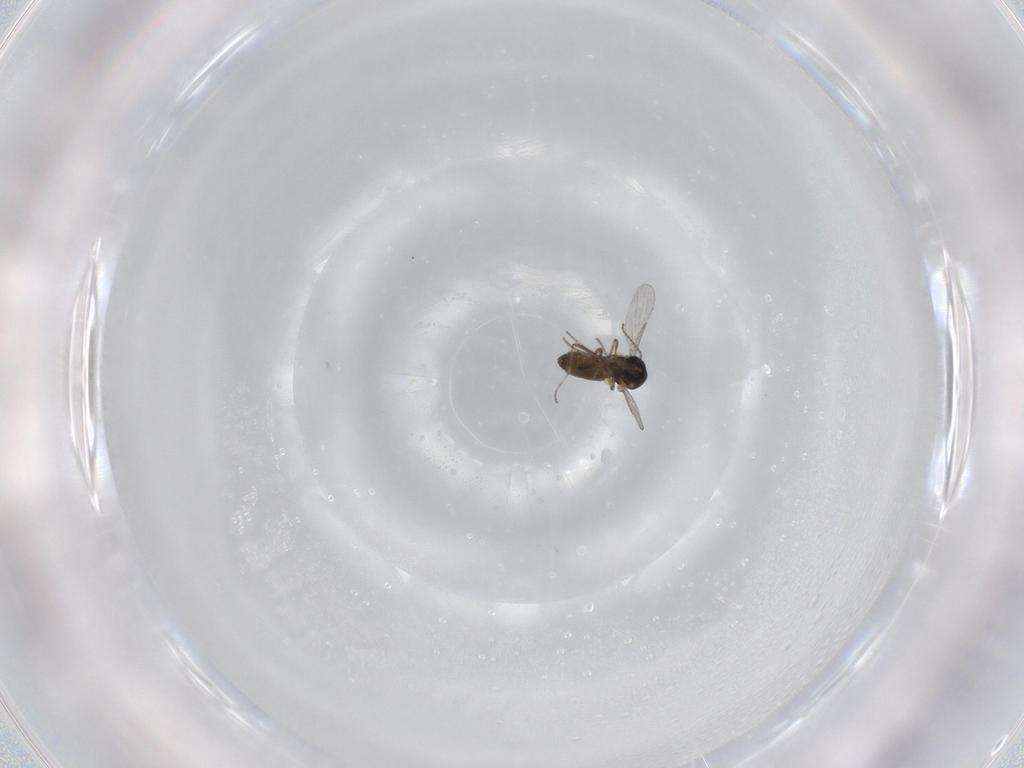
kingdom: Animalia
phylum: Arthropoda
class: Insecta
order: Diptera
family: Ceratopogonidae
